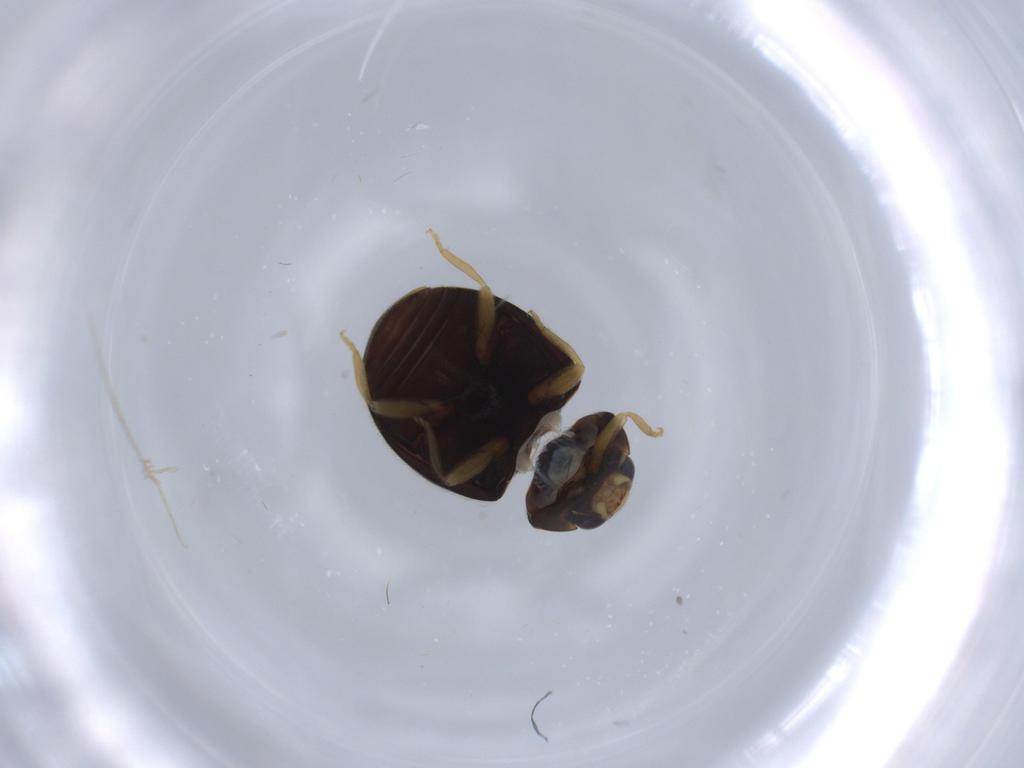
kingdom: Animalia
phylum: Arthropoda
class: Insecta
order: Coleoptera
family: Coccinellidae
